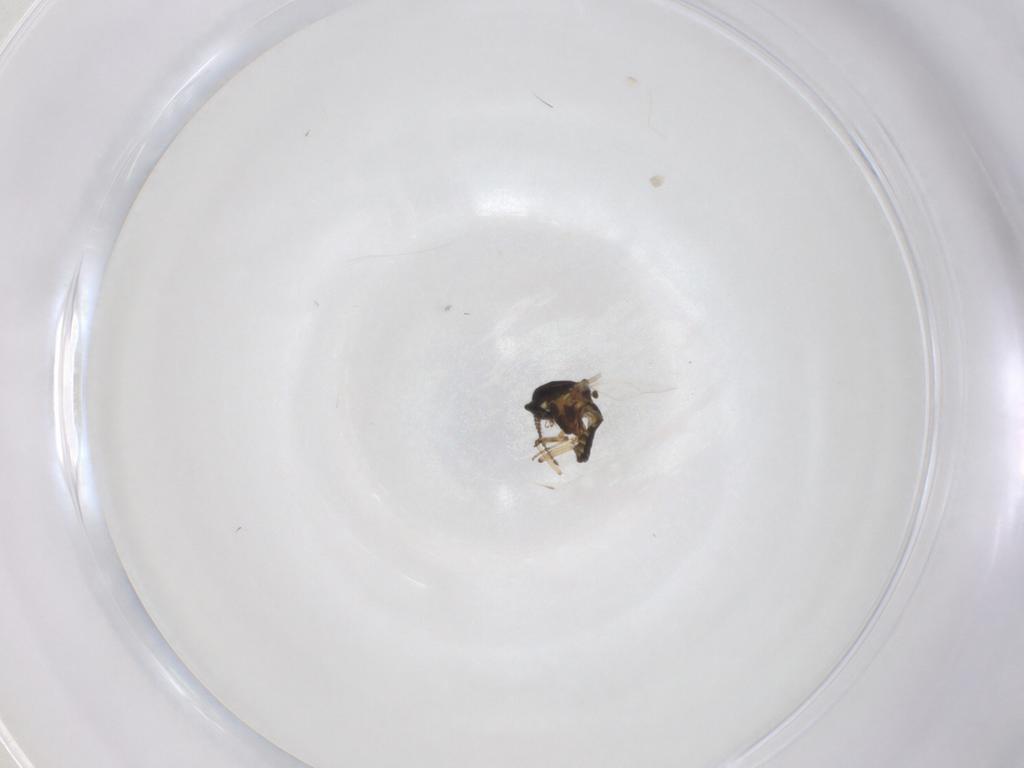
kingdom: Animalia
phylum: Arthropoda
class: Insecta
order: Diptera
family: Ceratopogonidae
